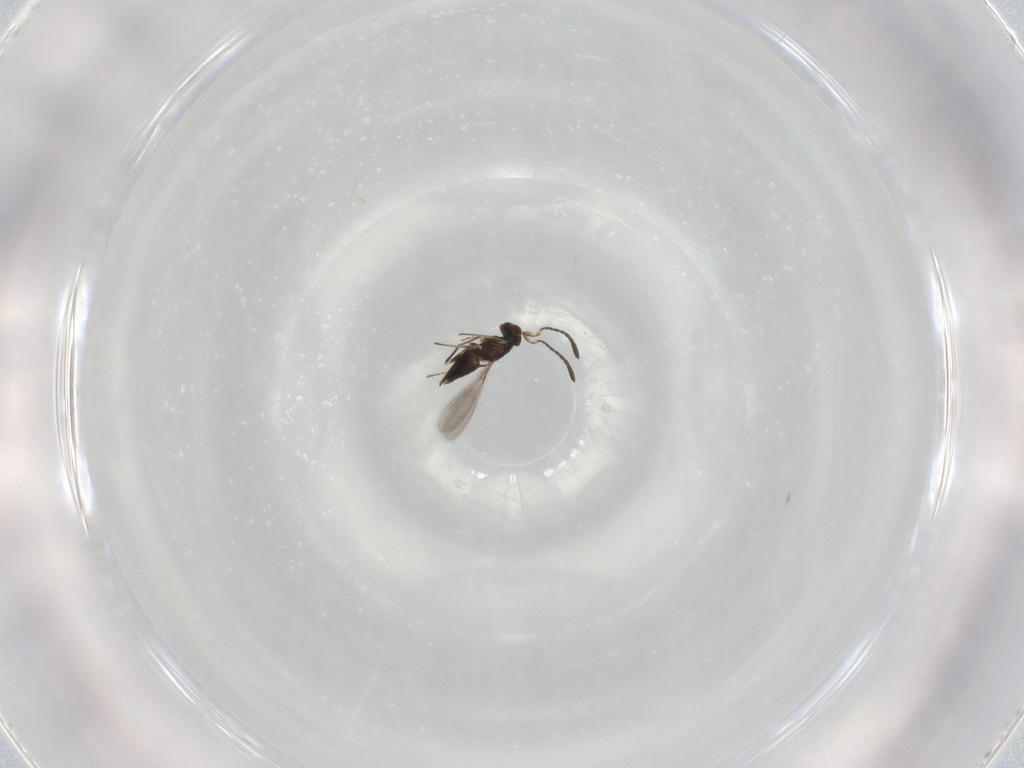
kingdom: Animalia
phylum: Arthropoda
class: Insecta
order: Hymenoptera
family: Mymaridae
